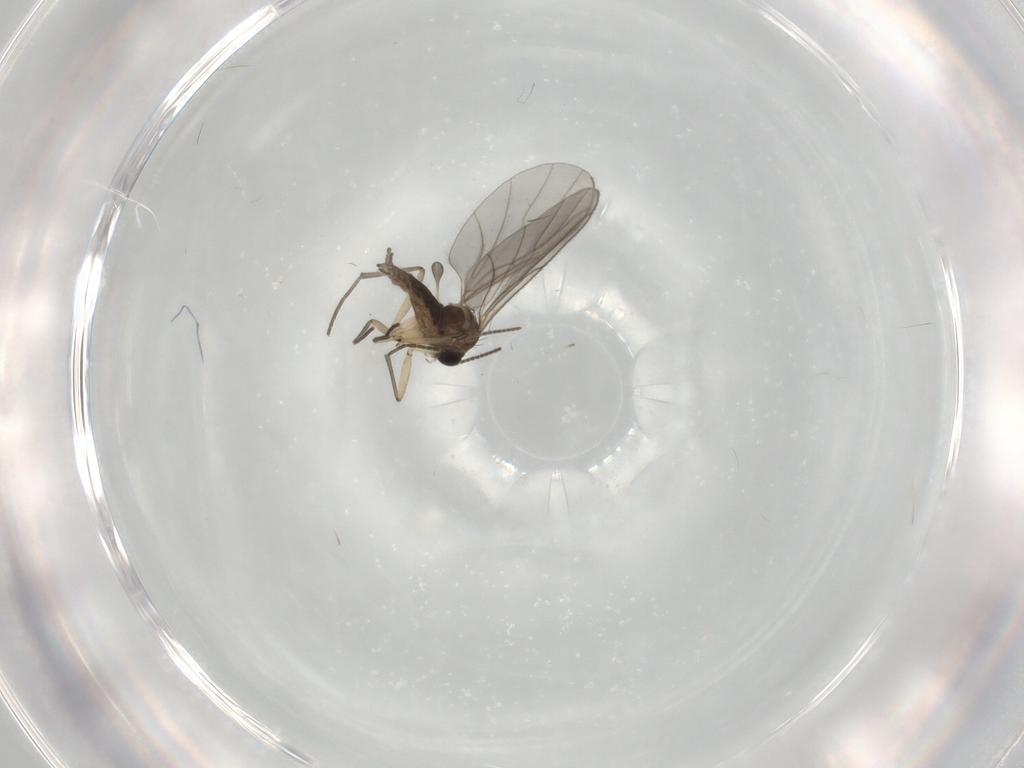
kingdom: Animalia
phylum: Arthropoda
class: Insecta
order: Diptera
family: Sciaridae
